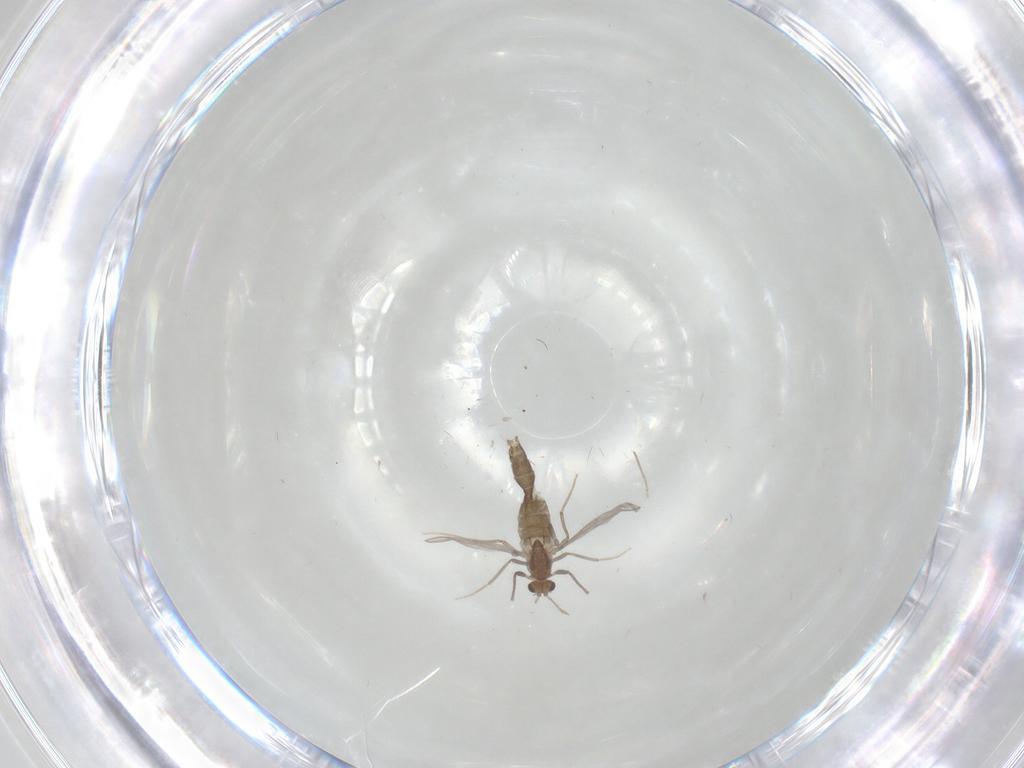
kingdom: Animalia
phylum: Arthropoda
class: Insecta
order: Diptera
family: Chironomidae
